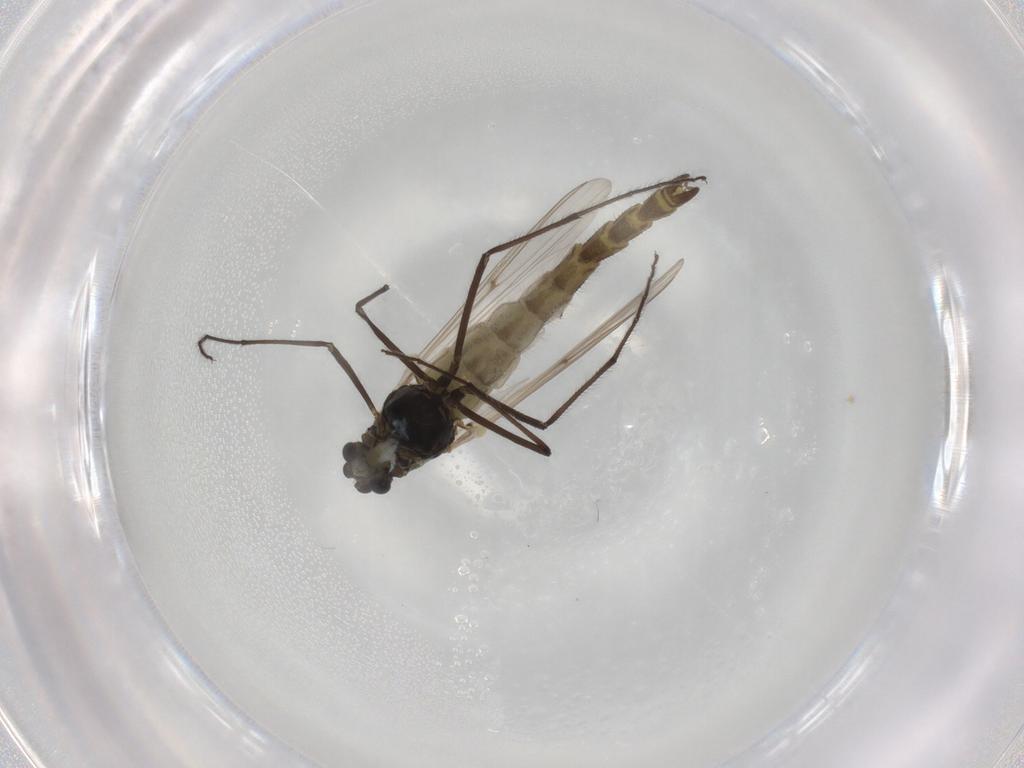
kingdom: Animalia
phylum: Arthropoda
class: Insecta
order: Diptera
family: Chironomidae
